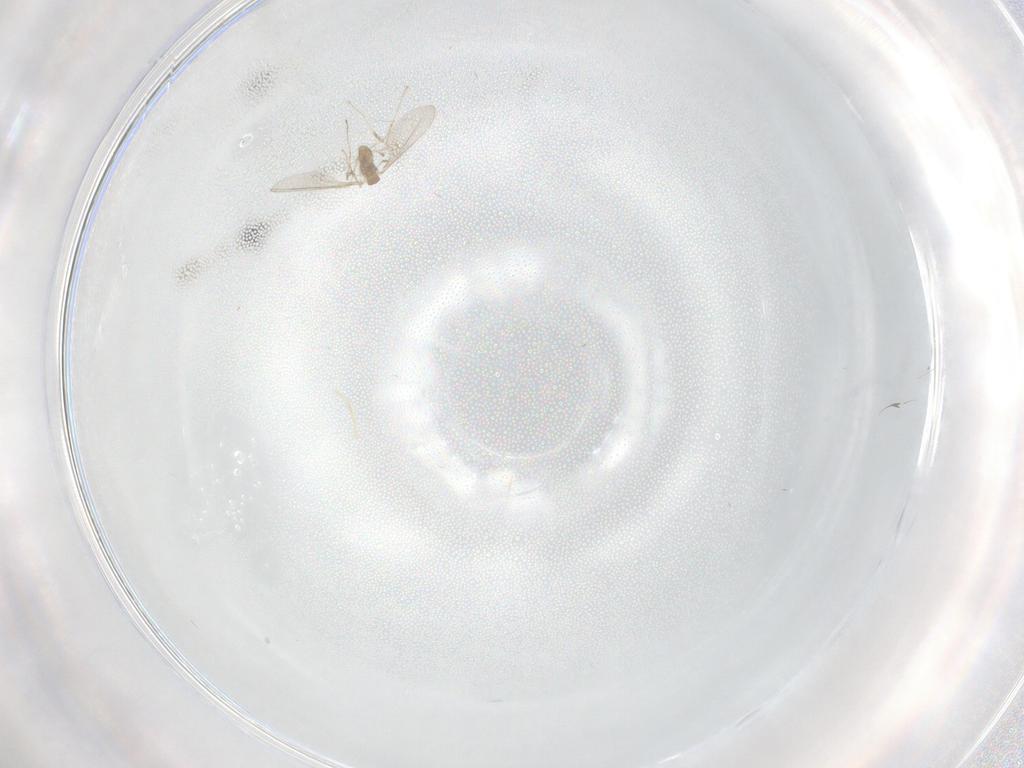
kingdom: Animalia
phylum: Arthropoda
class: Insecta
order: Diptera
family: Cecidomyiidae
